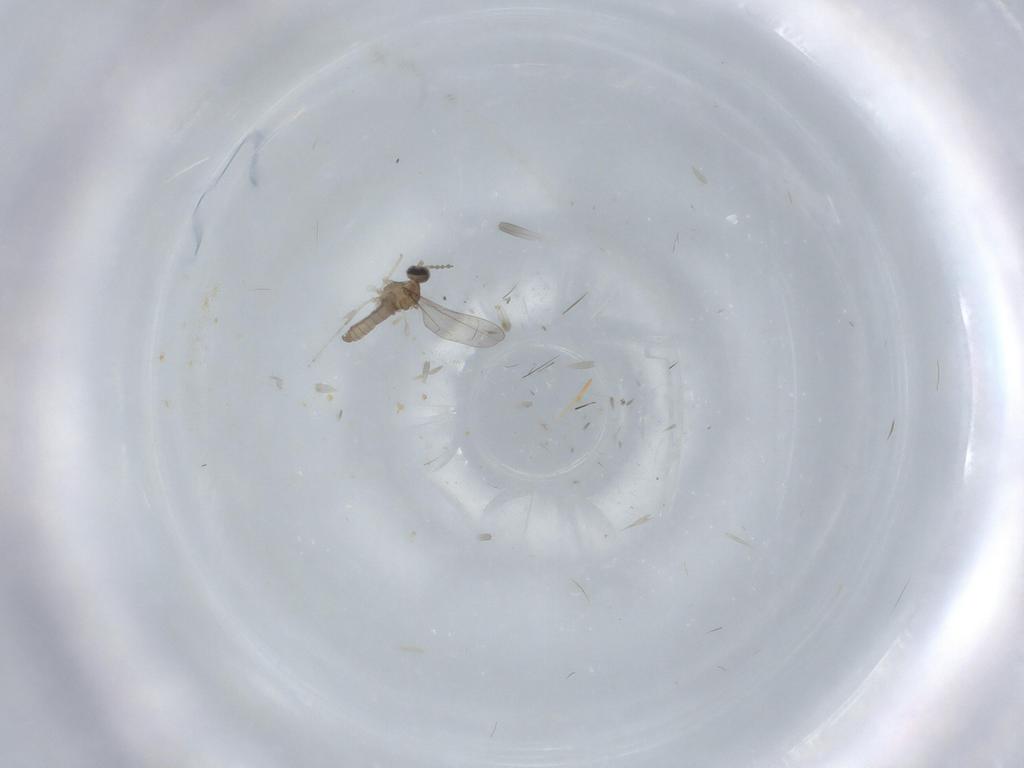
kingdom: Animalia
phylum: Arthropoda
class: Insecta
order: Diptera
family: Cecidomyiidae
